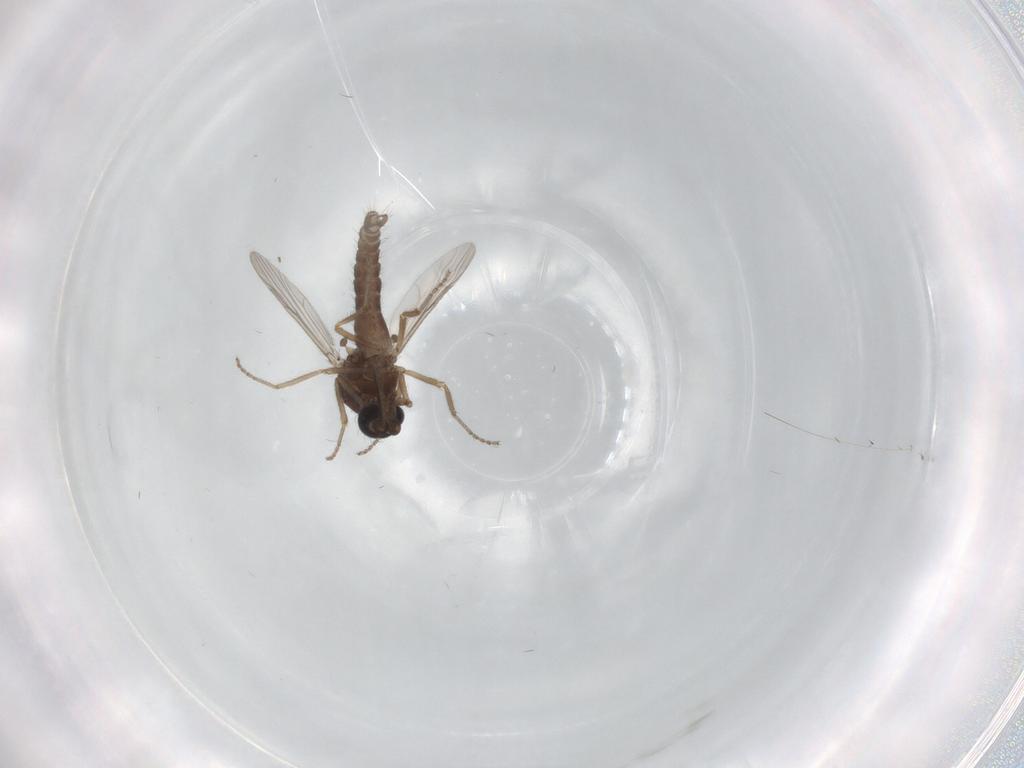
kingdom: Animalia
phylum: Arthropoda
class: Insecta
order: Diptera
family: Ceratopogonidae
